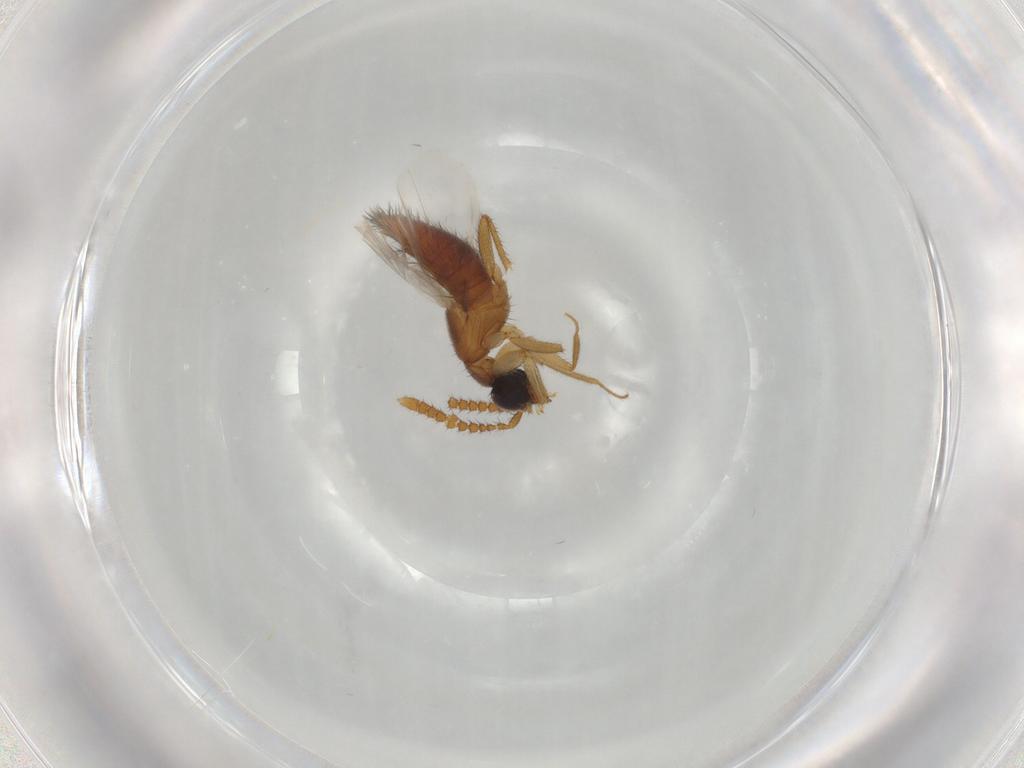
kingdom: Animalia
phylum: Arthropoda
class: Insecta
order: Coleoptera
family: Staphylinidae
